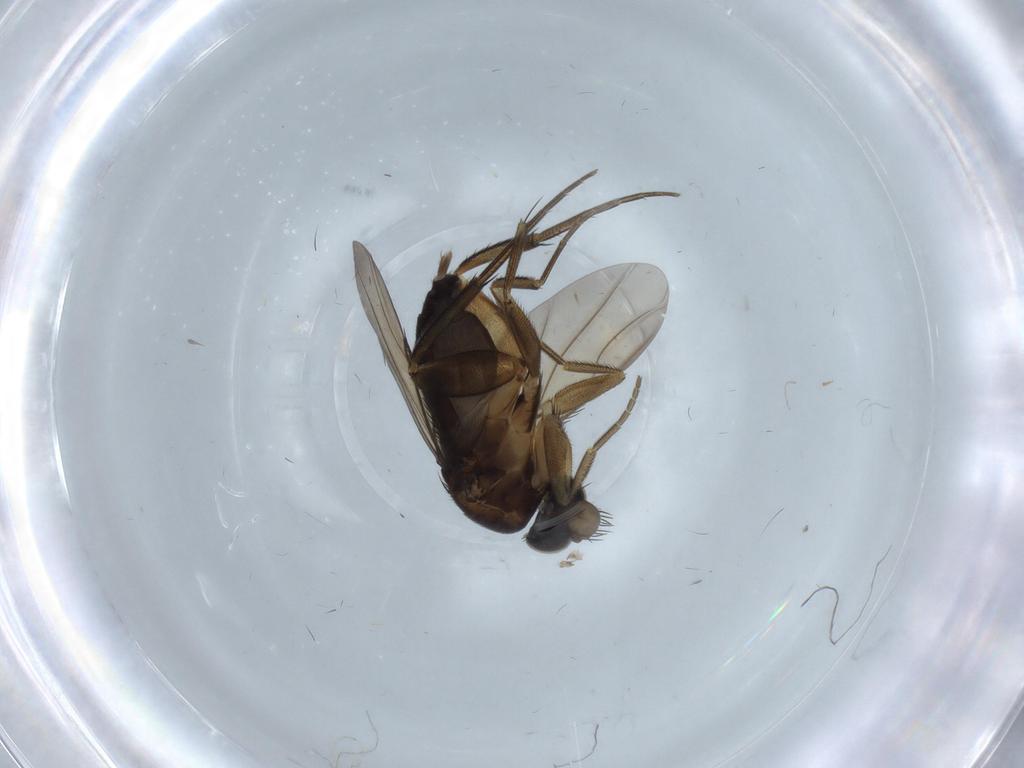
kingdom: Animalia
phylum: Arthropoda
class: Insecta
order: Diptera
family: Phoridae
